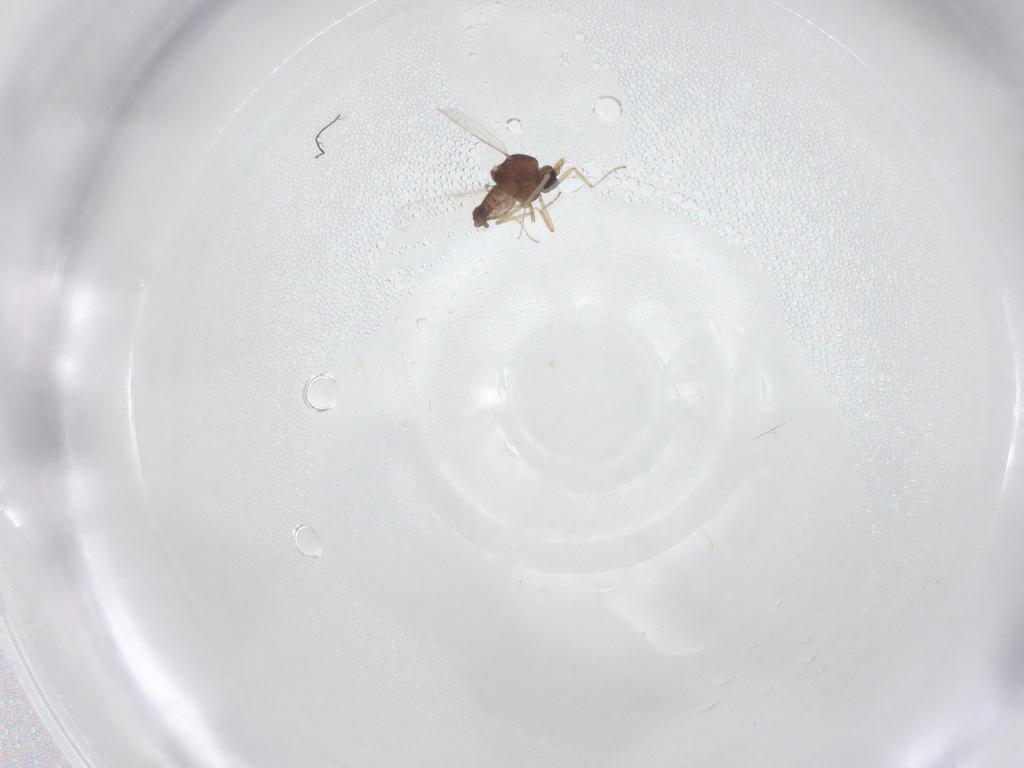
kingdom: Animalia
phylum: Arthropoda
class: Insecta
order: Diptera
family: Ceratopogonidae
